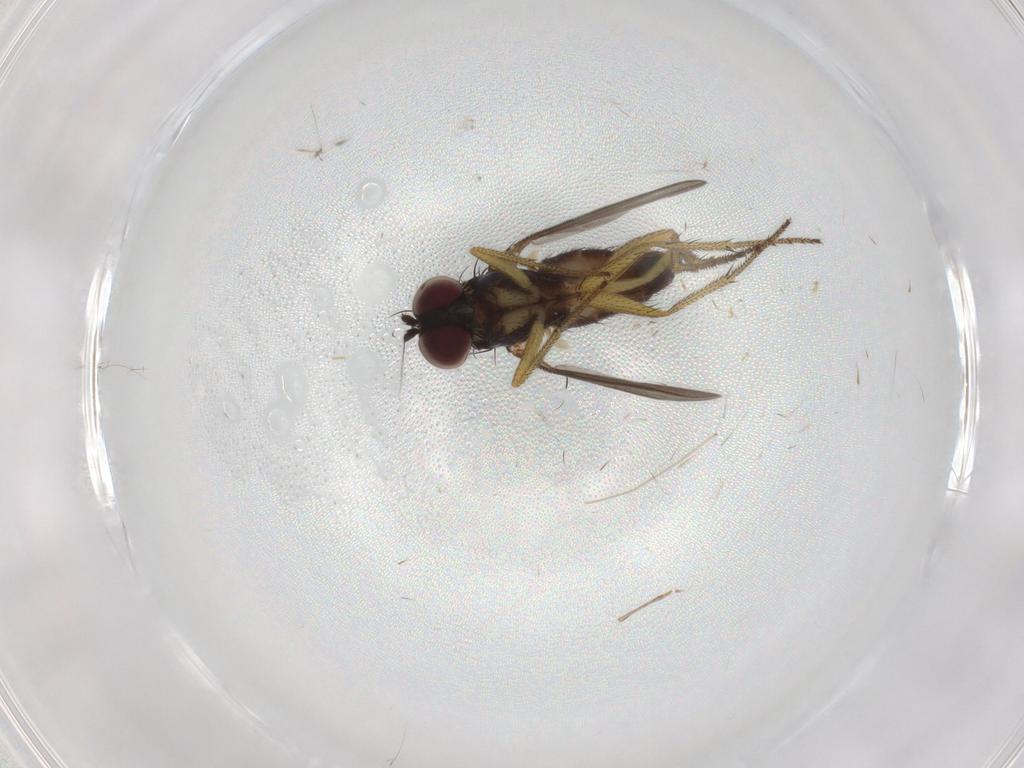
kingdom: Animalia
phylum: Arthropoda
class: Insecta
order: Diptera
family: Dolichopodidae
